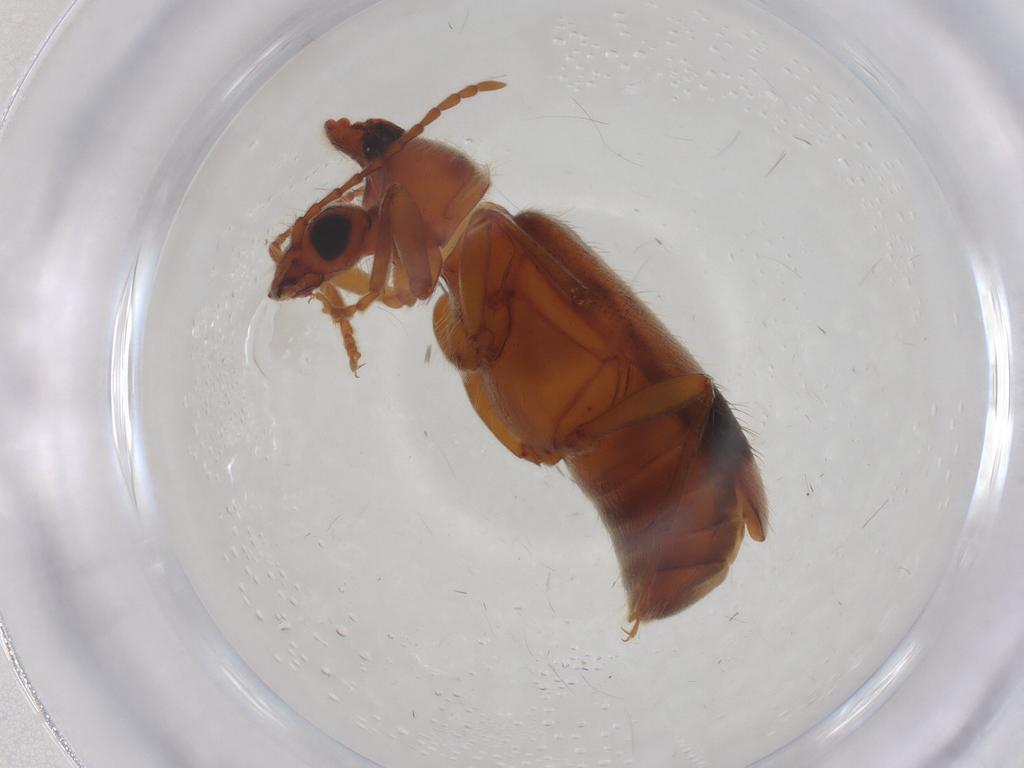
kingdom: Animalia
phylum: Arthropoda
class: Insecta
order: Coleoptera
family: Anthicidae
